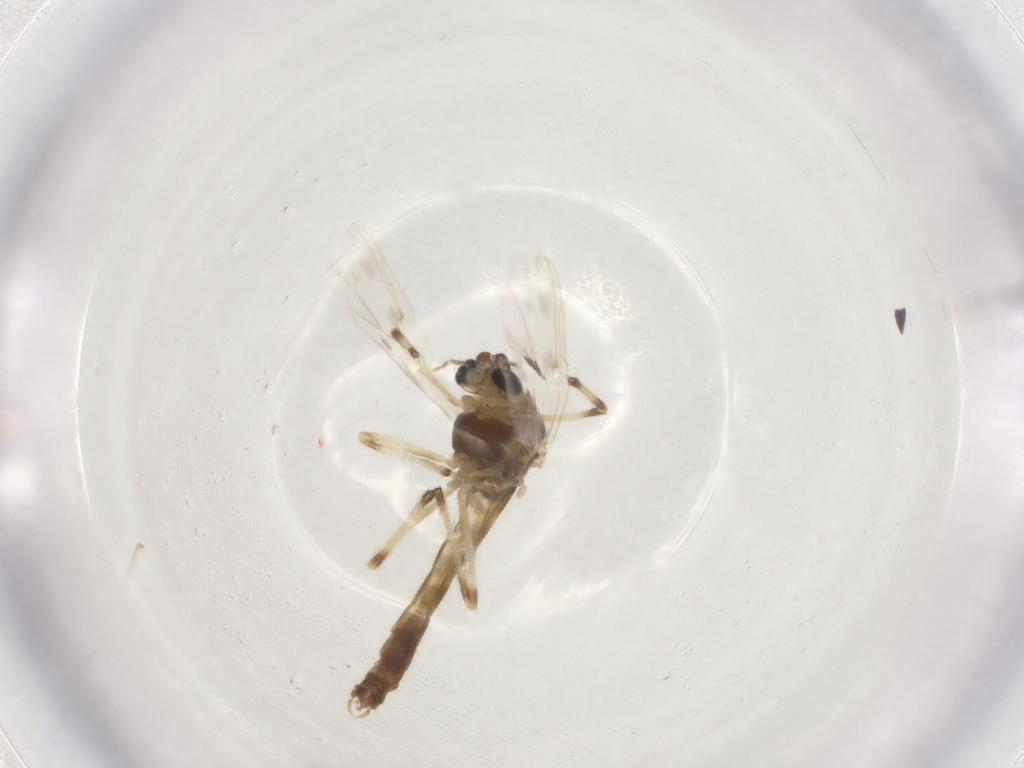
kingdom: Animalia
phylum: Arthropoda
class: Insecta
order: Diptera
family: Chironomidae
